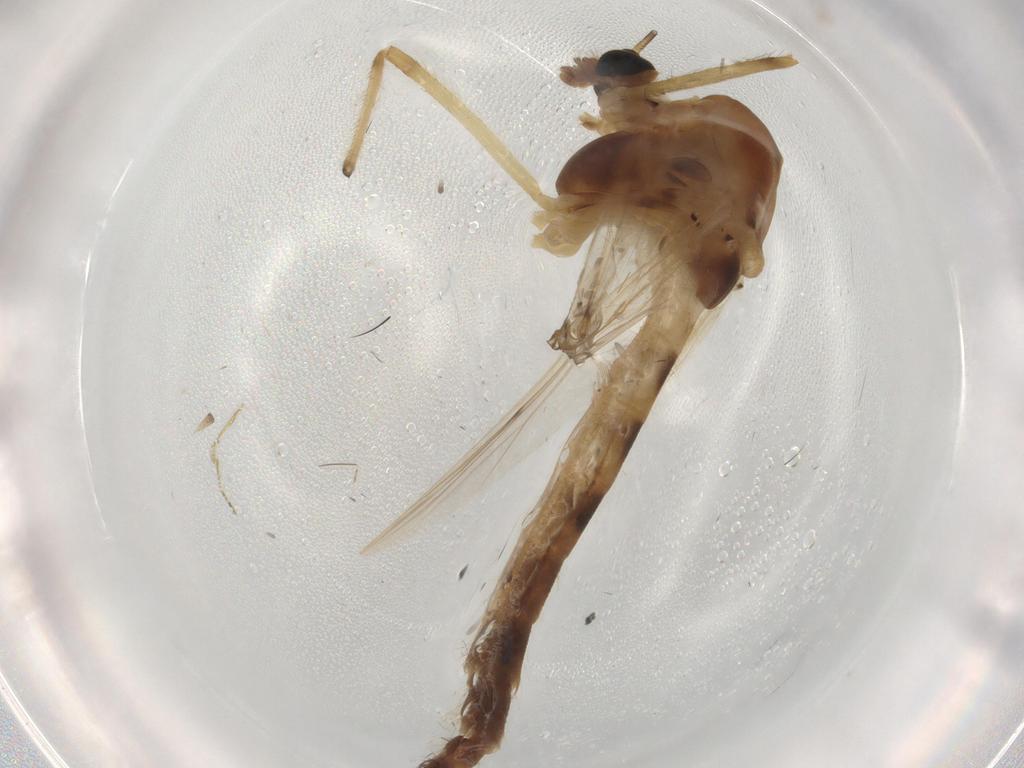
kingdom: Animalia
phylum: Arthropoda
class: Insecta
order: Diptera
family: Chironomidae
